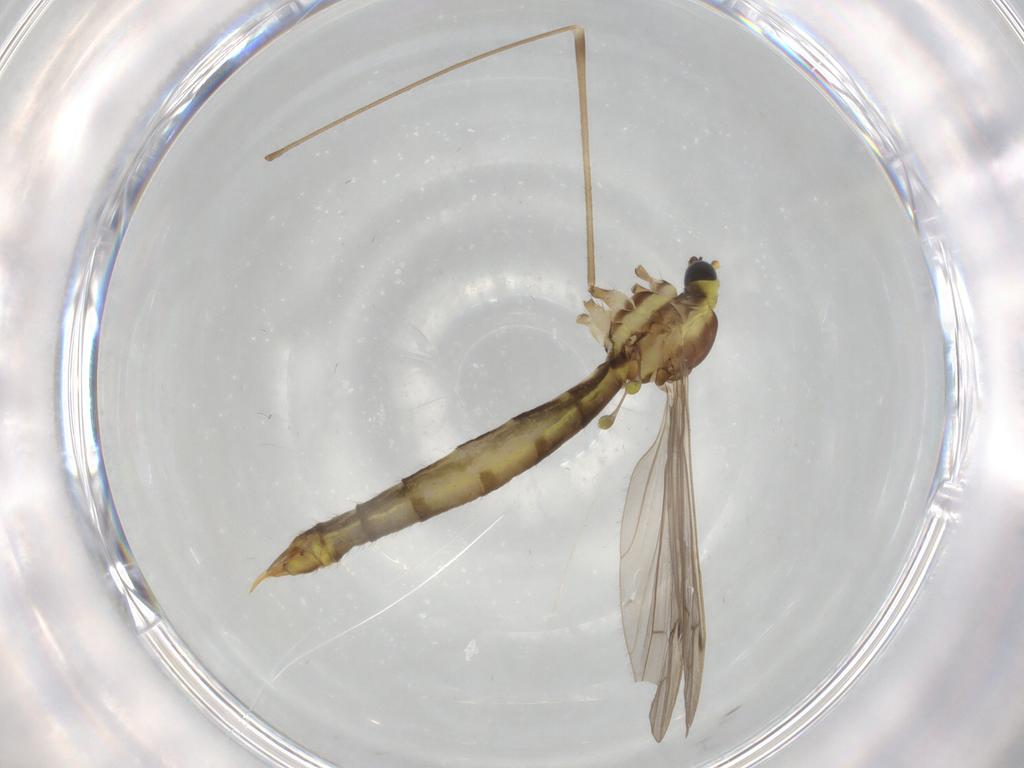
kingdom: Animalia
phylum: Arthropoda
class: Insecta
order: Diptera
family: Limoniidae
